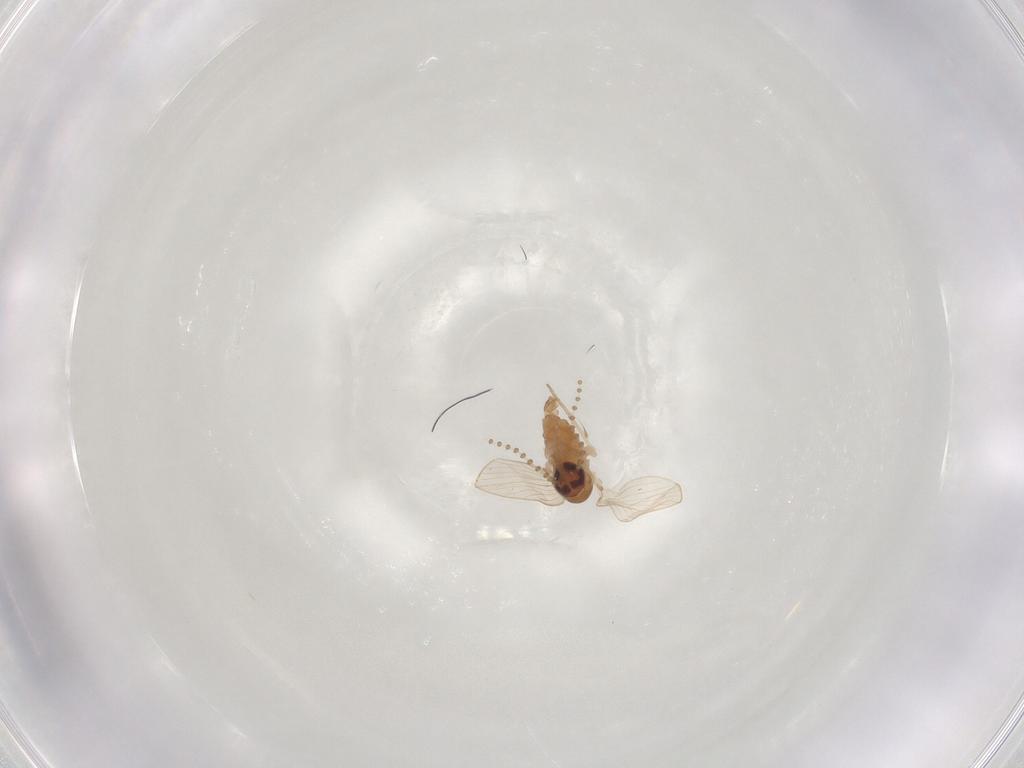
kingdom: Animalia
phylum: Arthropoda
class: Insecta
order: Diptera
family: Psychodidae
